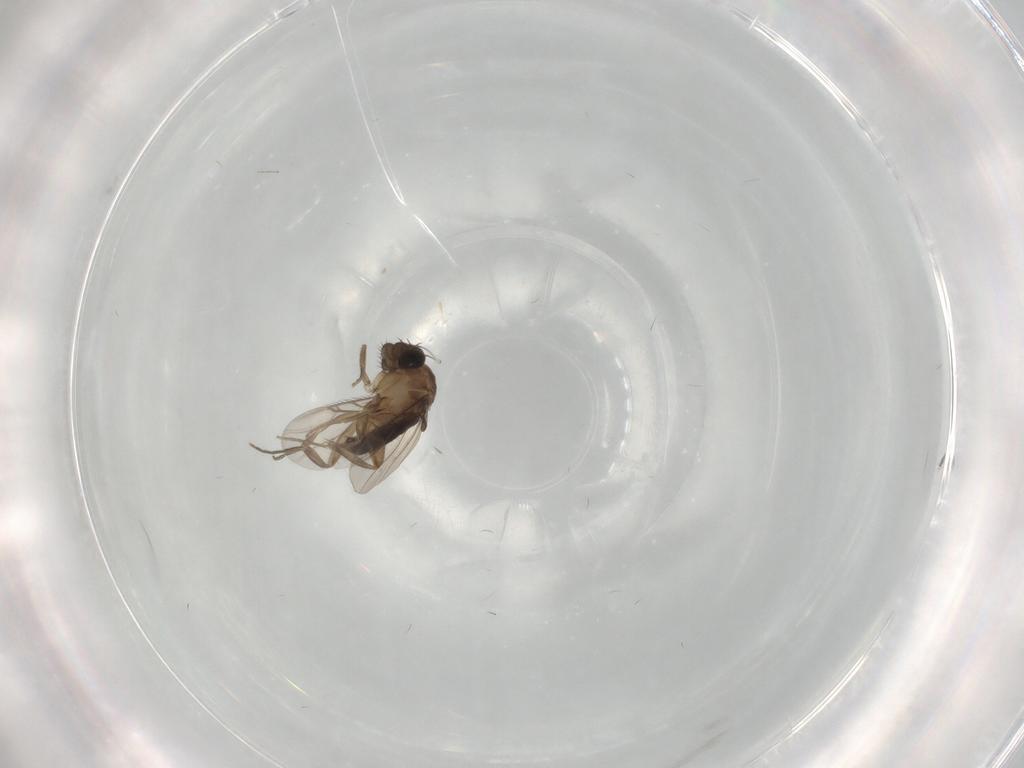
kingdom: Animalia
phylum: Arthropoda
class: Insecta
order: Diptera
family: Phoridae
